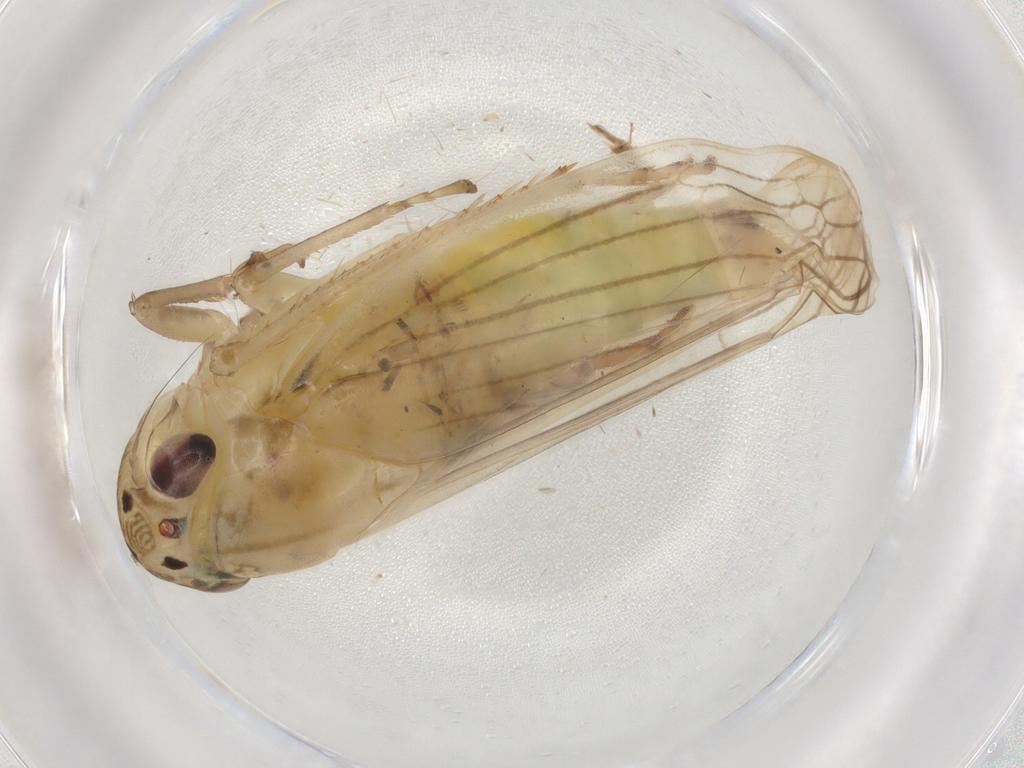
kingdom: Animalia
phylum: Arthropoda
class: Insecta
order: Hemiptera
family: Cicadellidae
